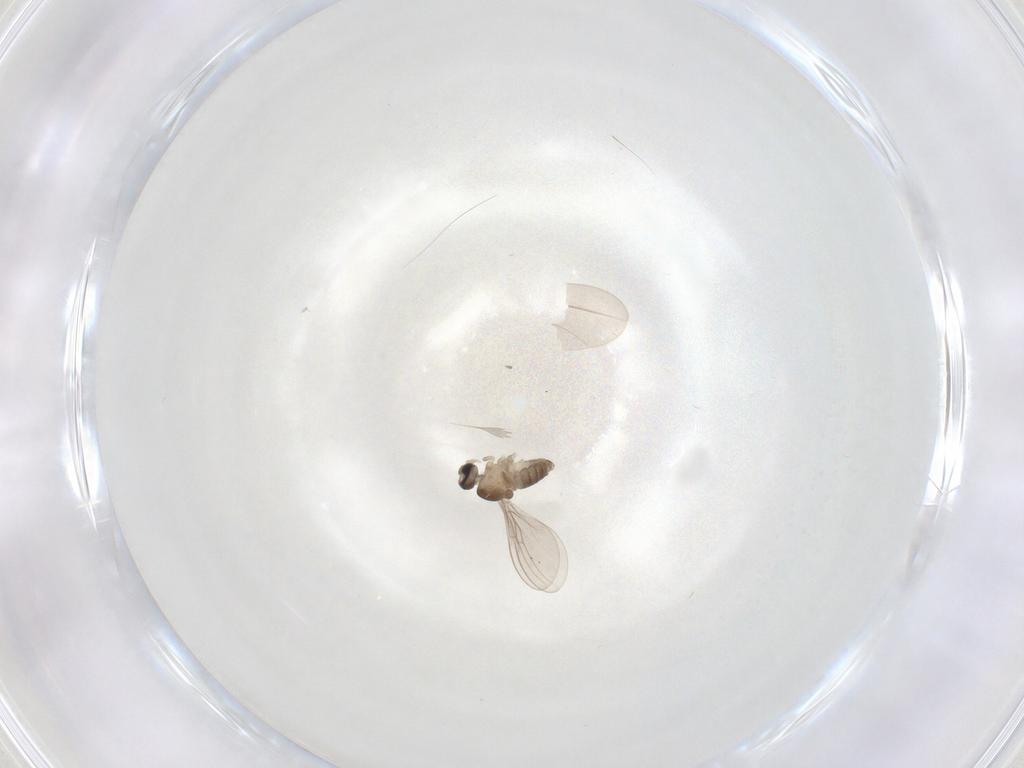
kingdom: Animalia
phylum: Arthropoda
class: Insecta
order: Diptera
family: Cecidomyiidae
